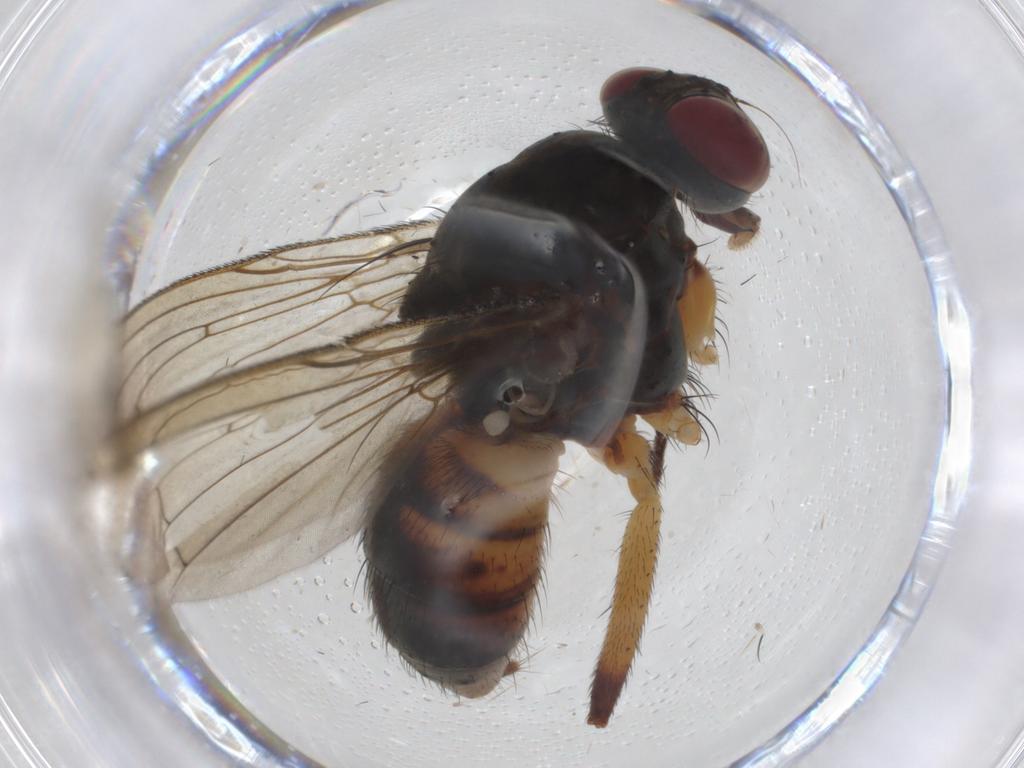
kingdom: Animalia
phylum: Arthropoda
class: Insecta
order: Diptera
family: Muscidae
